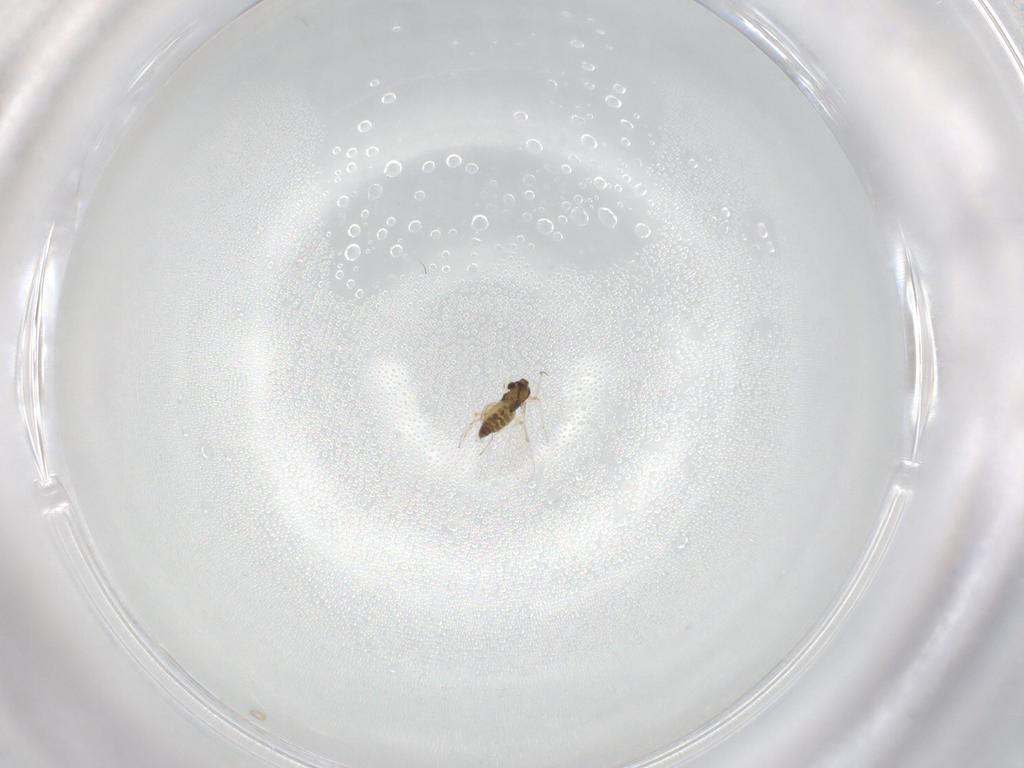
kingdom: Animalia
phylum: Arthropoda
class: Insecta
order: Diptera
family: Chironomidae
